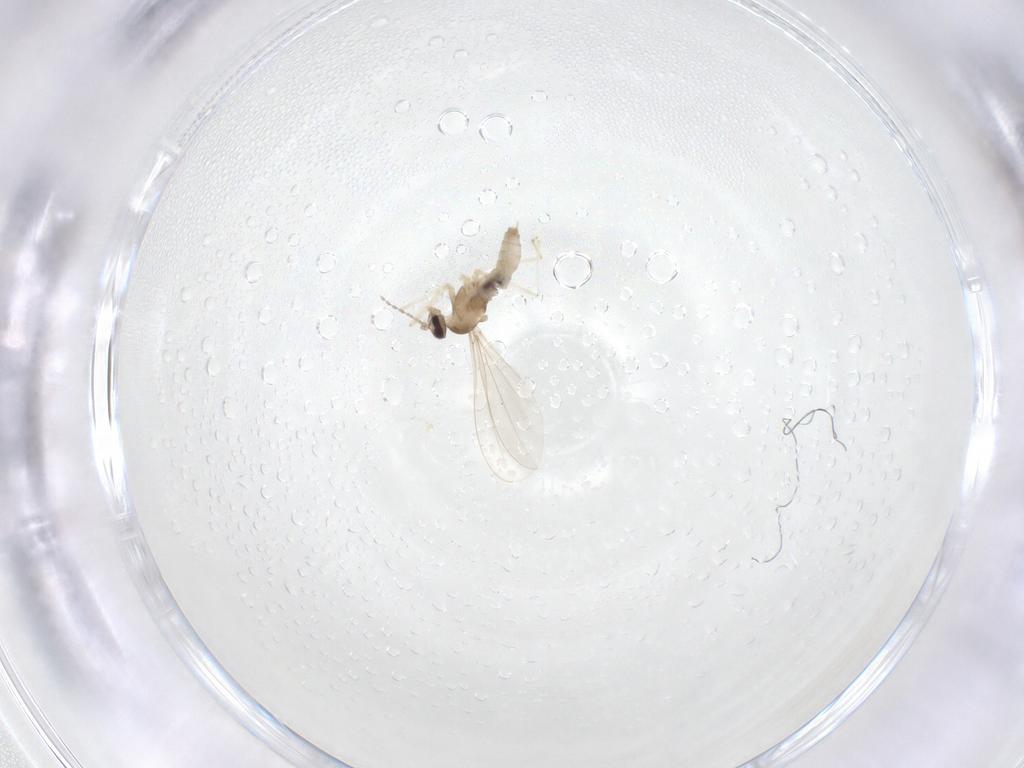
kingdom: Animalia
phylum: Arthropoda
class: Insecta
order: Diptera
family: Cecidomyiidae
